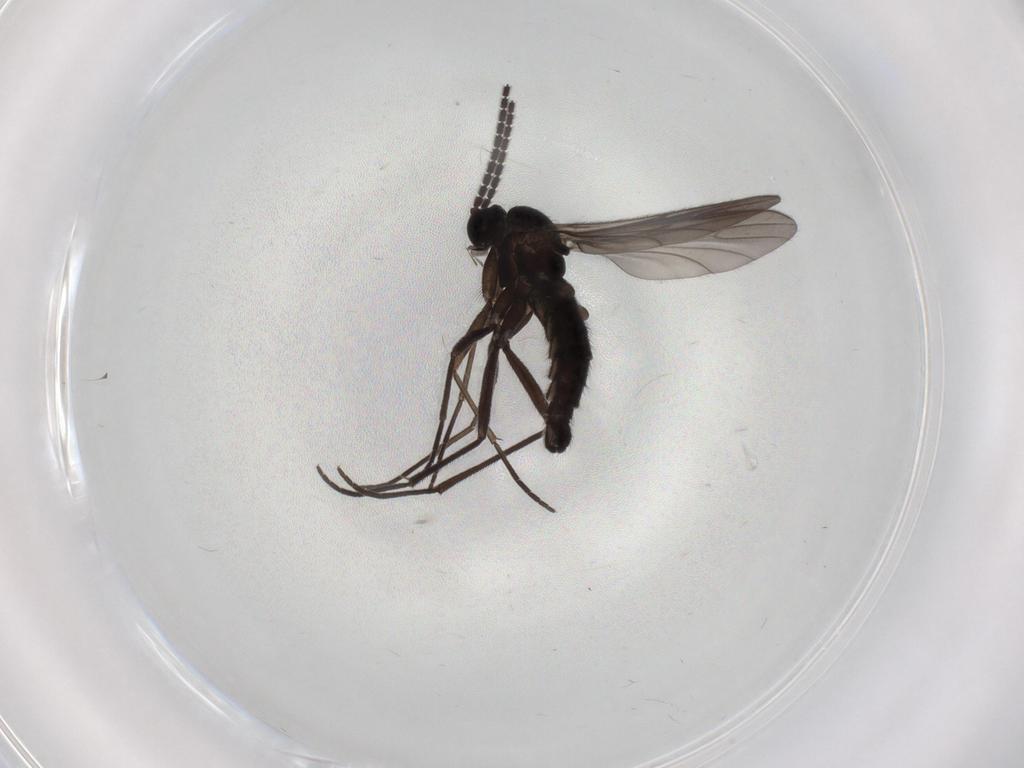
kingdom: Animalia
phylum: Arthropoda
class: Insecta
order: Diptera
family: Sciaridae
